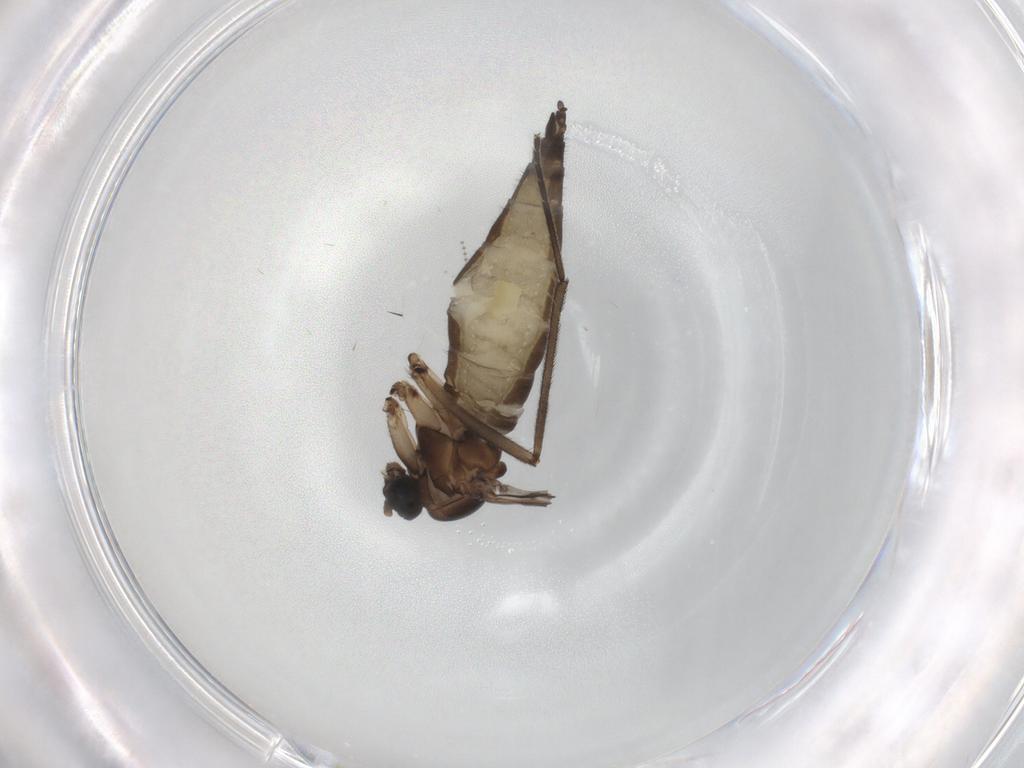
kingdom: Animalia
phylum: Arthropoda
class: Insecta
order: Diptera
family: Sciaridae
